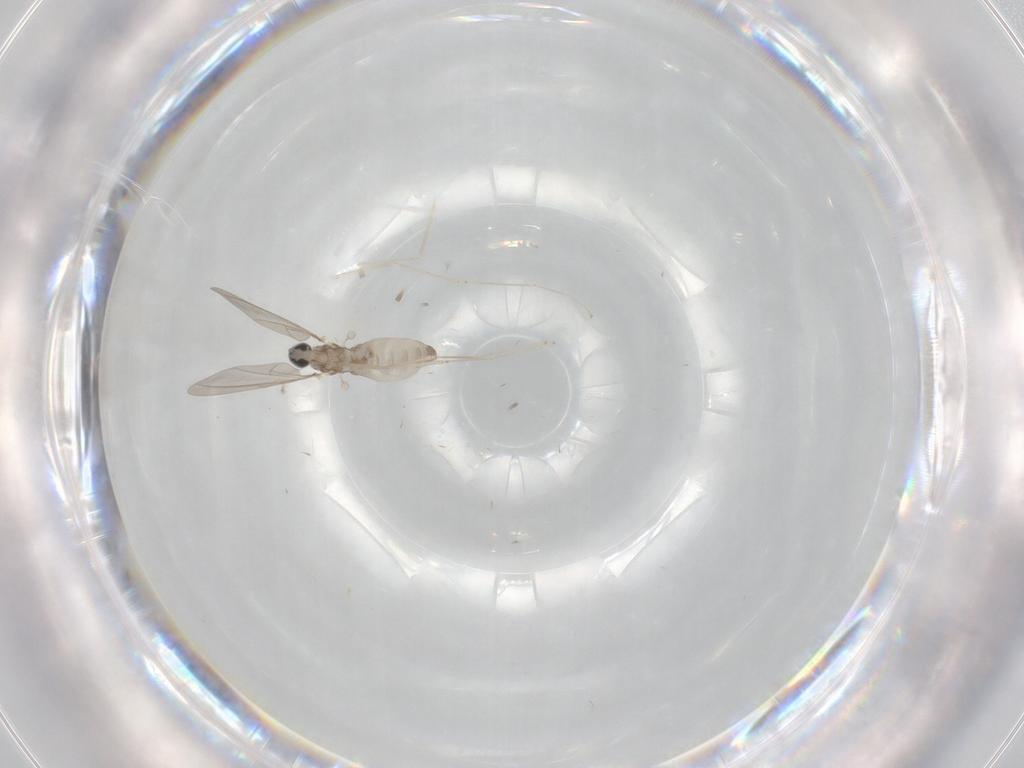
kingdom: Animalia
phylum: Arthropoda
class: Insecta
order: Diptera
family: Cecidomyiidae
